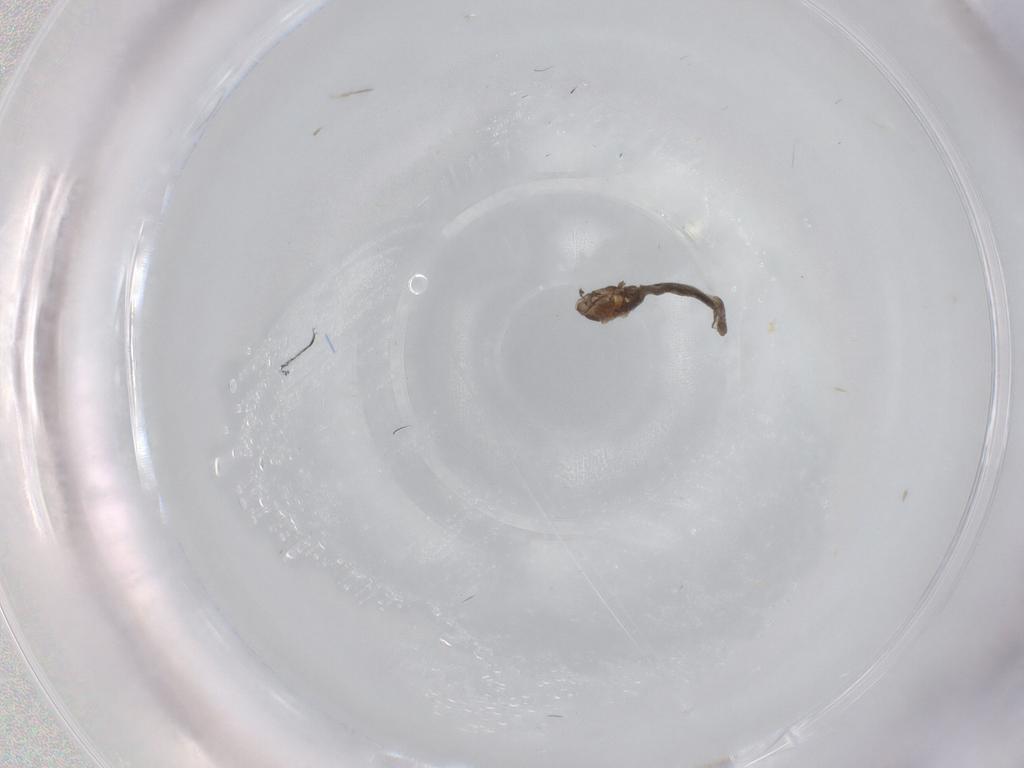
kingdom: Animalia
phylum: Arthropoda
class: Insecta
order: Diptera
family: Cecidomyiidae
